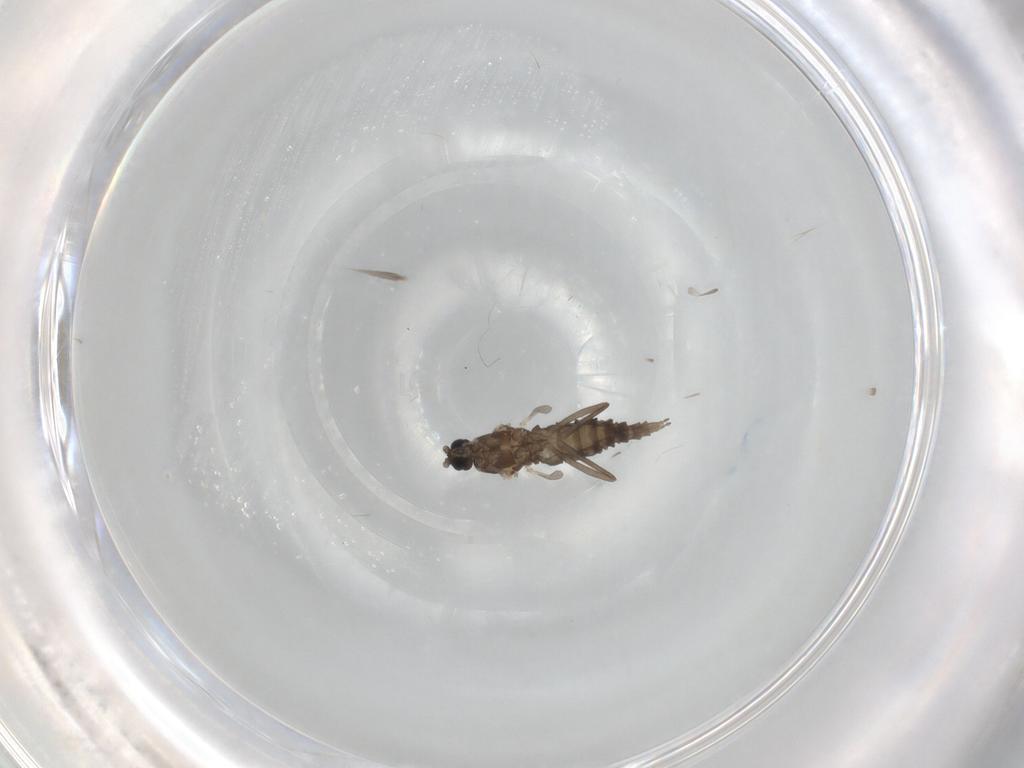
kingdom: Animalia
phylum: Arthropoda
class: Insecta
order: Diptera
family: Cecidomyiidae
